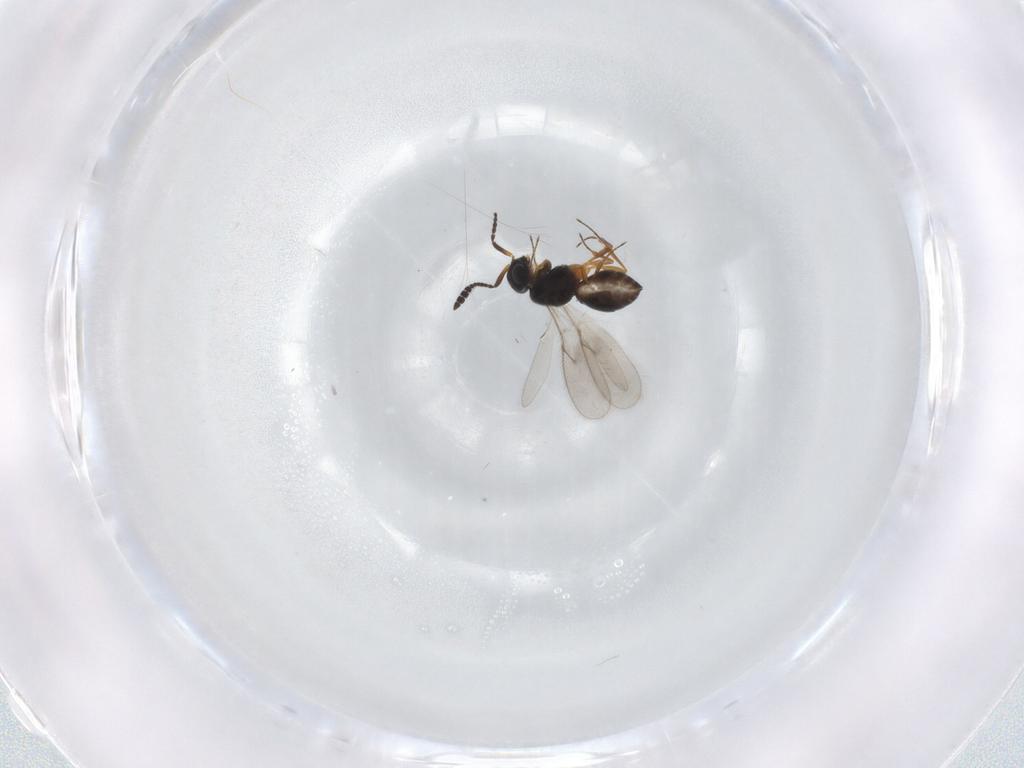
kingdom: Animalia
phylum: Arthropoda
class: Insecta
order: Hymenoptera
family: Scelionidae
